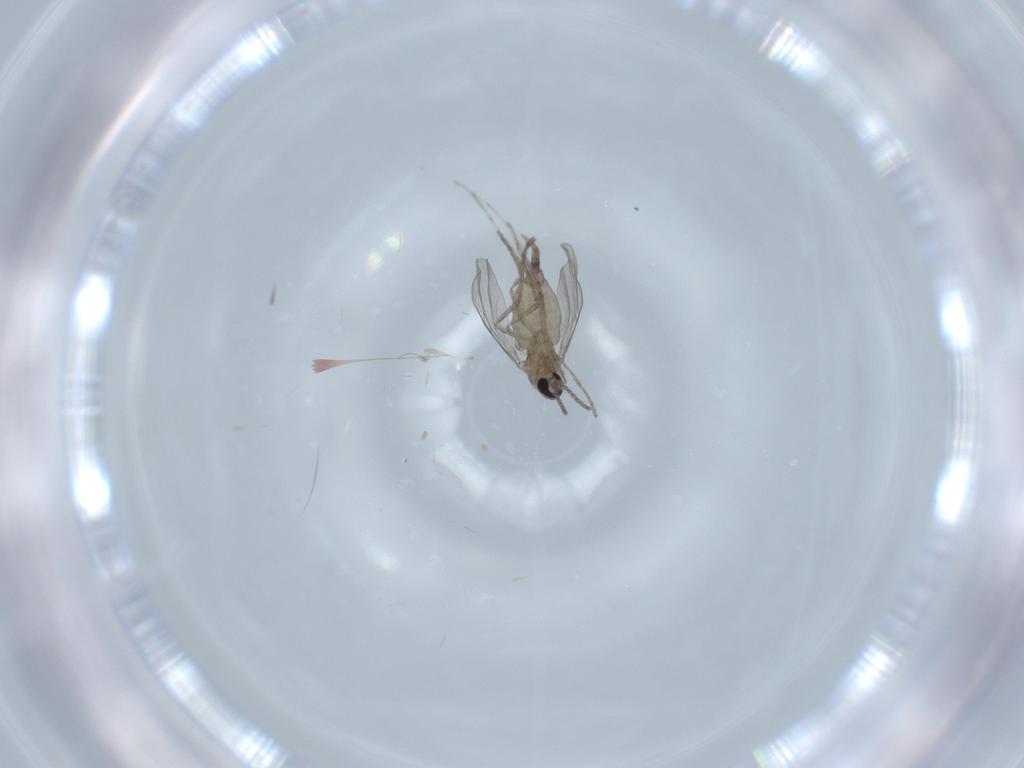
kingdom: Animalia
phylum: Arthropoda
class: Insecta
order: Diptera
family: Cecidomyiidae
